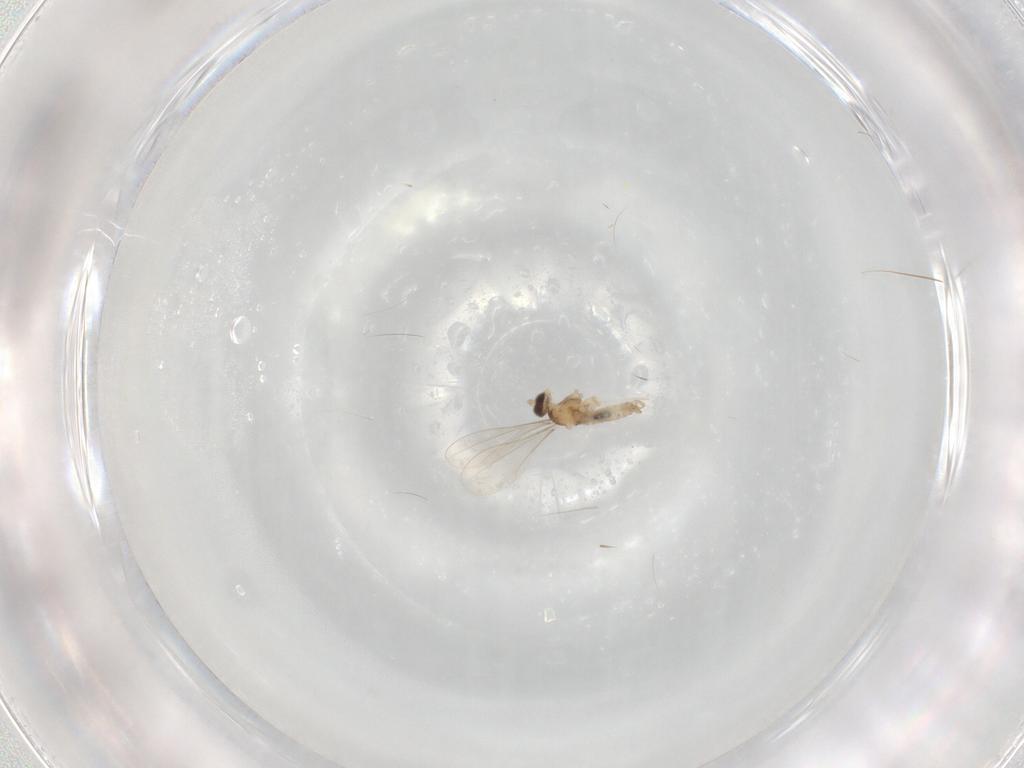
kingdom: Animalia
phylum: Arthropoda
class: Insecta
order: Diptera
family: Cecidomyiidae
